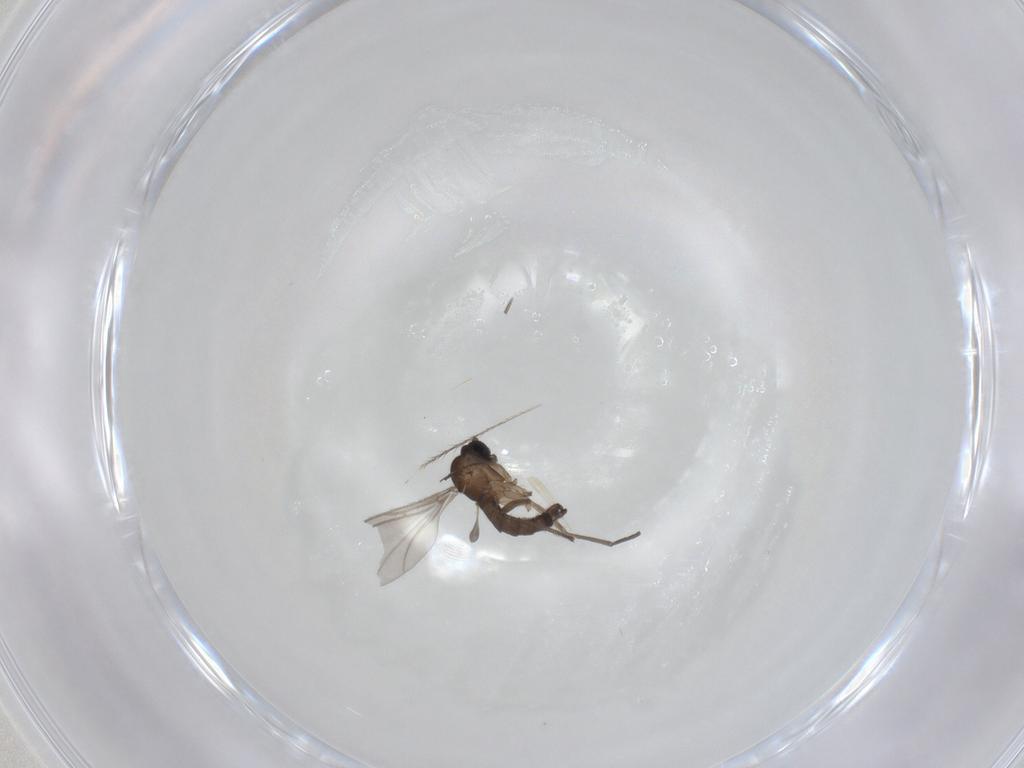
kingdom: Animalia
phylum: Arthropoda
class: Insecta
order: Diptera
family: Sciaridae
